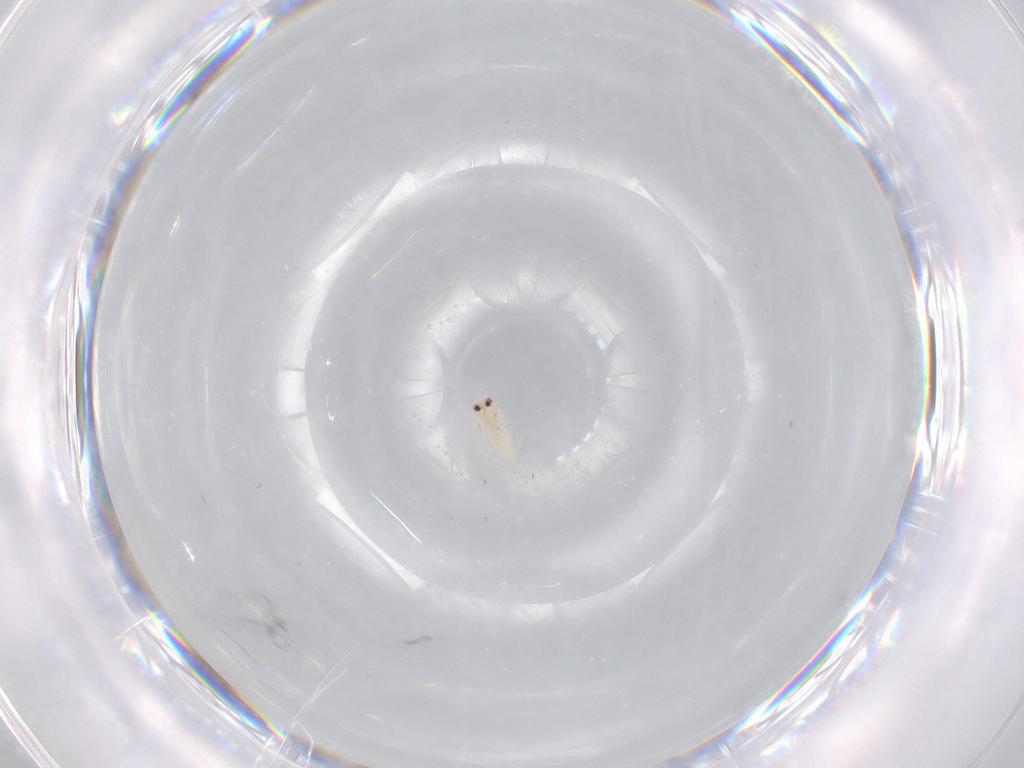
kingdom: Animalia
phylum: Arthropoda
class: Insecta
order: Hemiptera
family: Aleyrodidae
